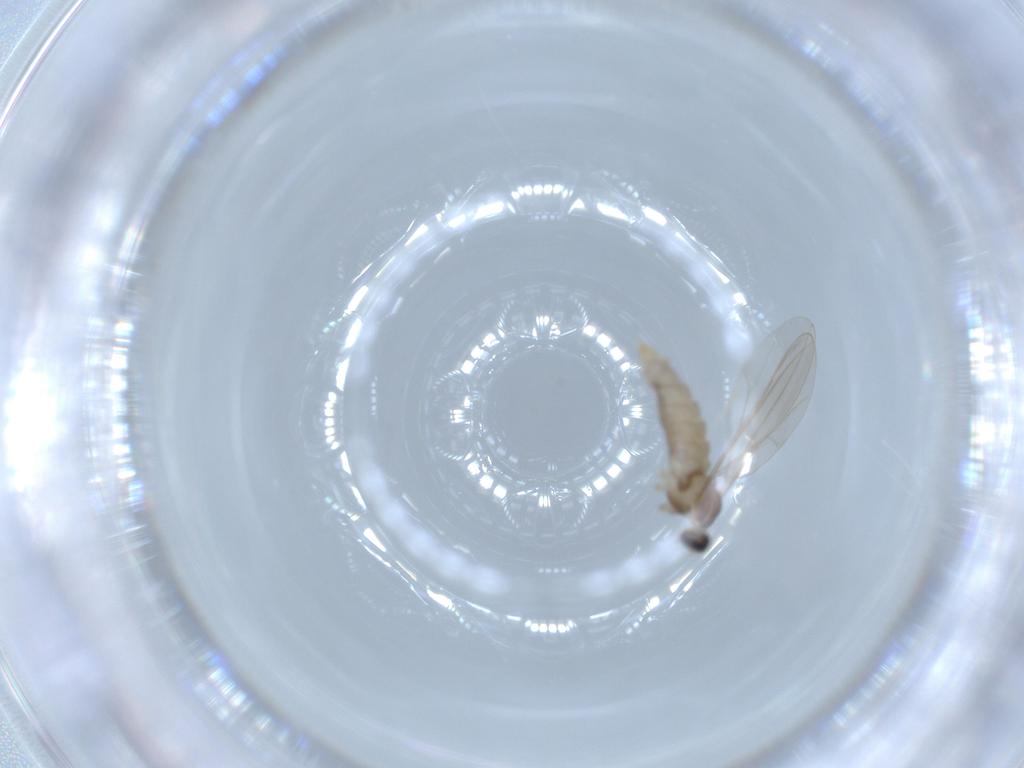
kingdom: Animalia
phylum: Arthropoda
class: Insecta
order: Diptera
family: Cecidomyiidae
